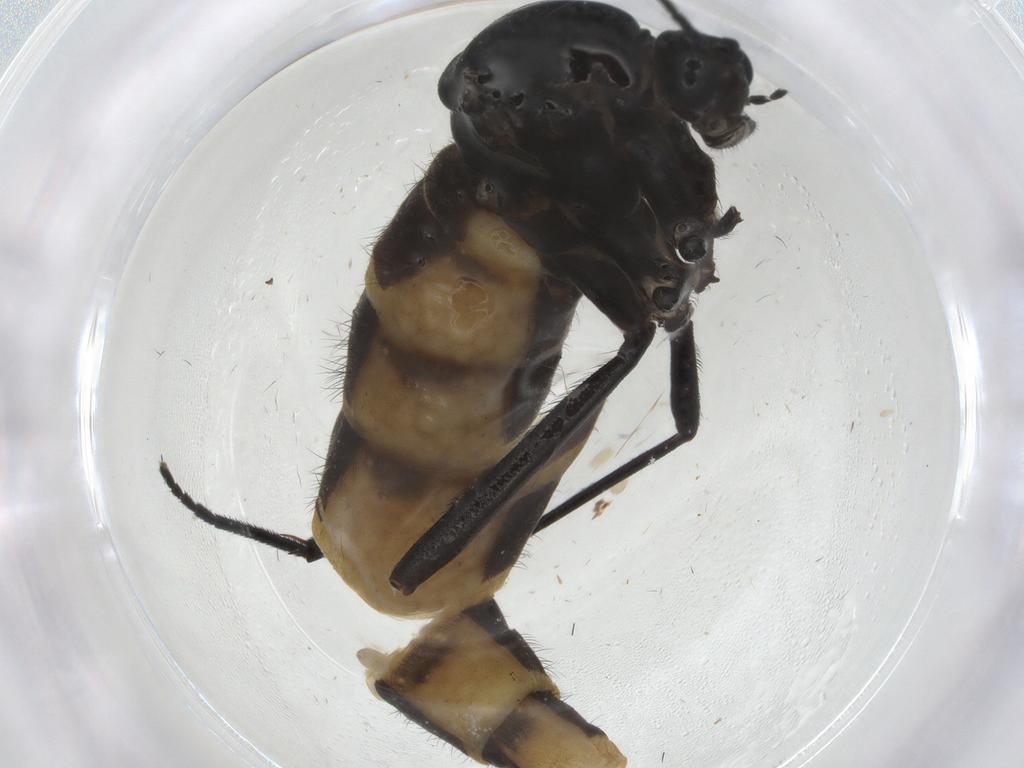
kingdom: Animalia
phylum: Arthropoda
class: Insecta
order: Diptera
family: Sciaridae
